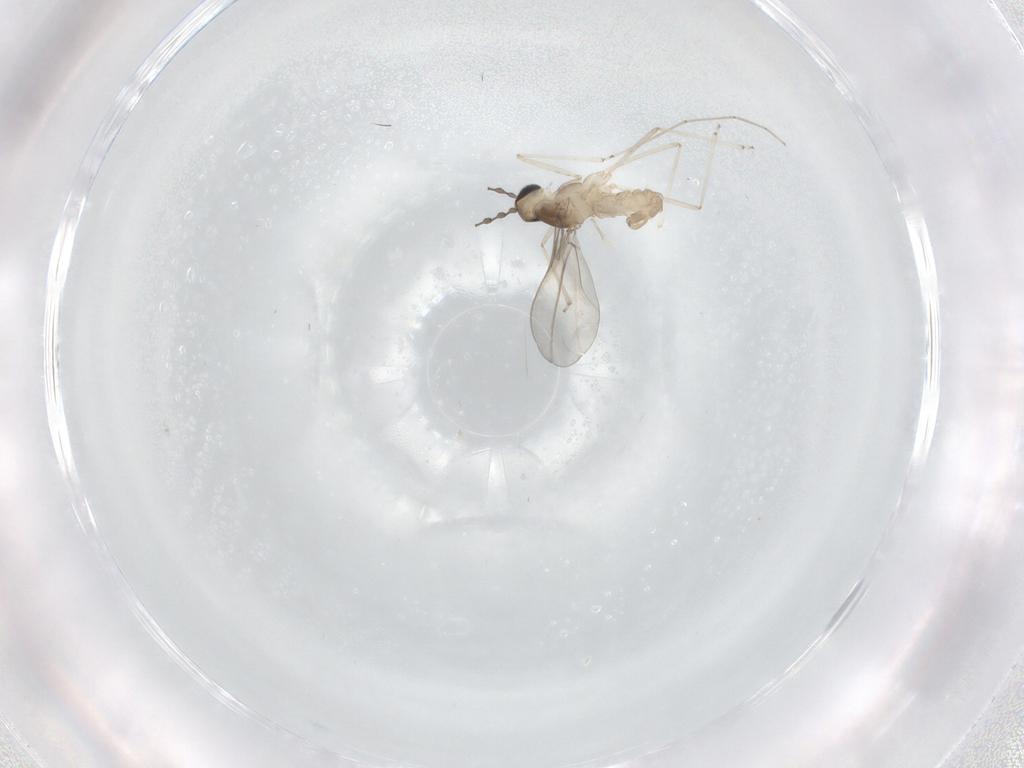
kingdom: Animalia
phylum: Arthropoda
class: Insecta
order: Diptera
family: Cecidomyiidae
